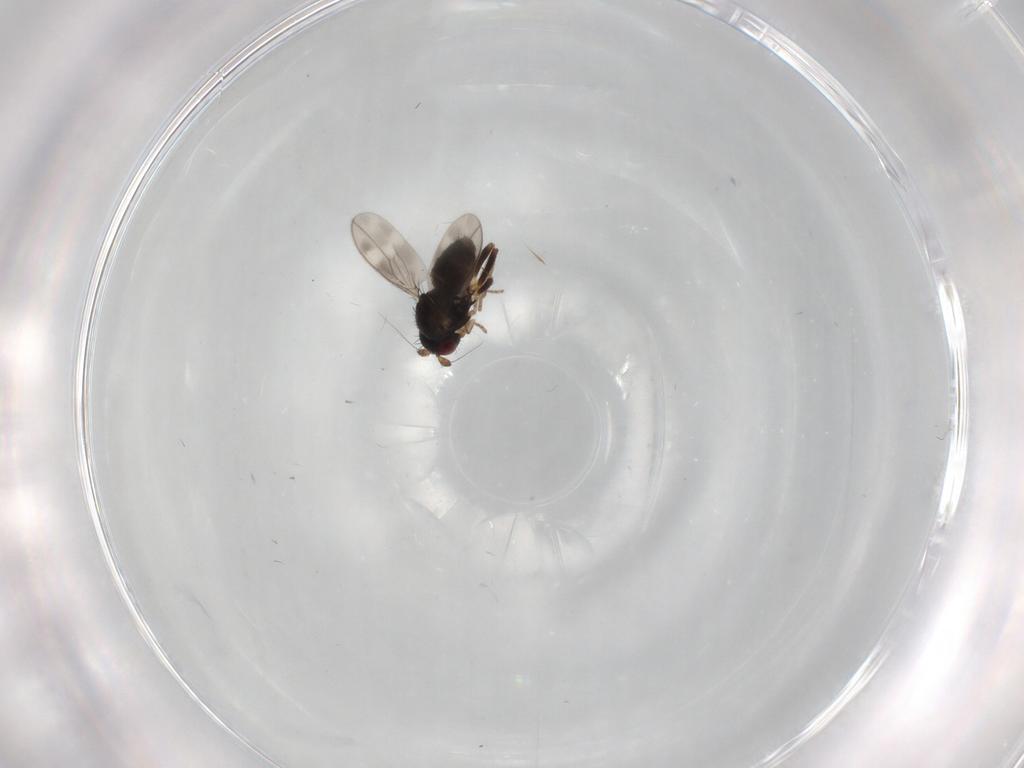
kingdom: Animalia
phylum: Arthropoda
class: Insecta
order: Diptera
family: Sphaeroceridae
